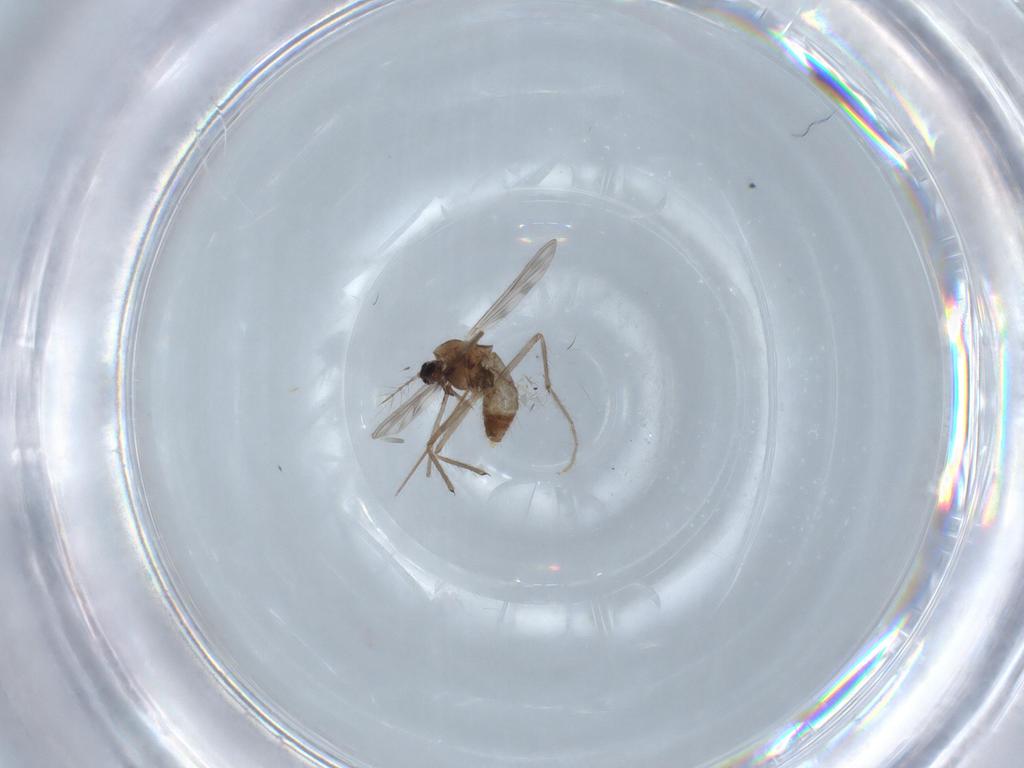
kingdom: Animalia
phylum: Arthropoda
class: Insecta
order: Diptera
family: Chironomidae
